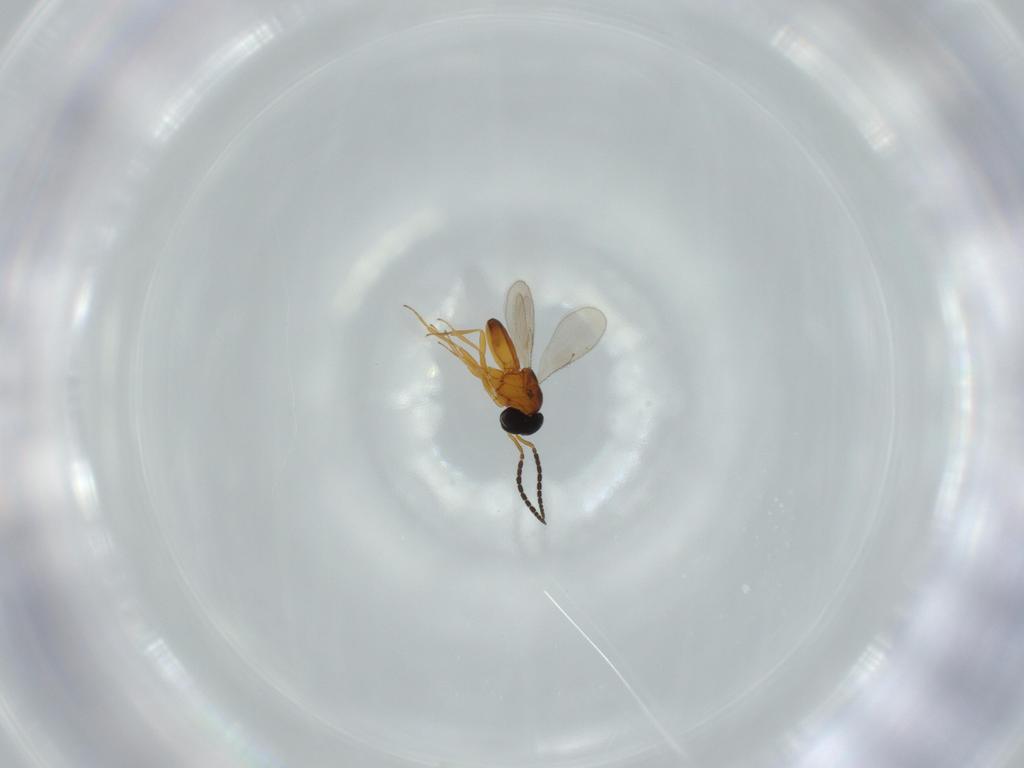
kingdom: Animalia
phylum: Arthropoda
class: Insecta
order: Hymenoptera
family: Scelionidae
